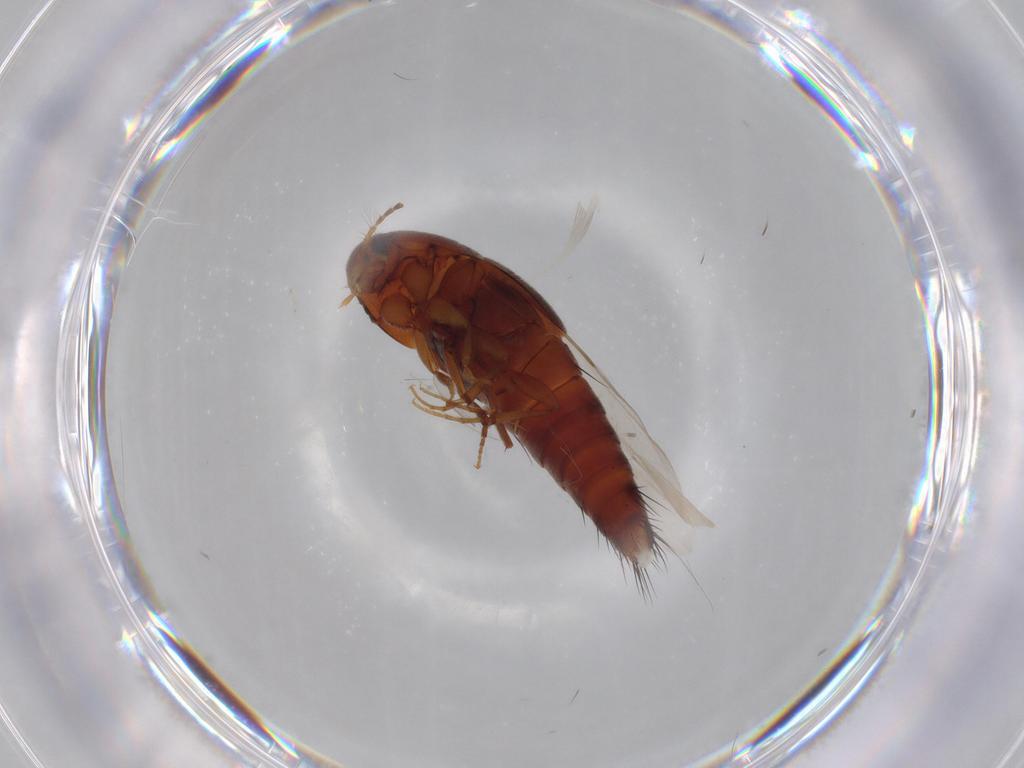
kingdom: Animalia
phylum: Arthropoda
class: Insecta
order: Coleoptera
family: Staphylinidae
